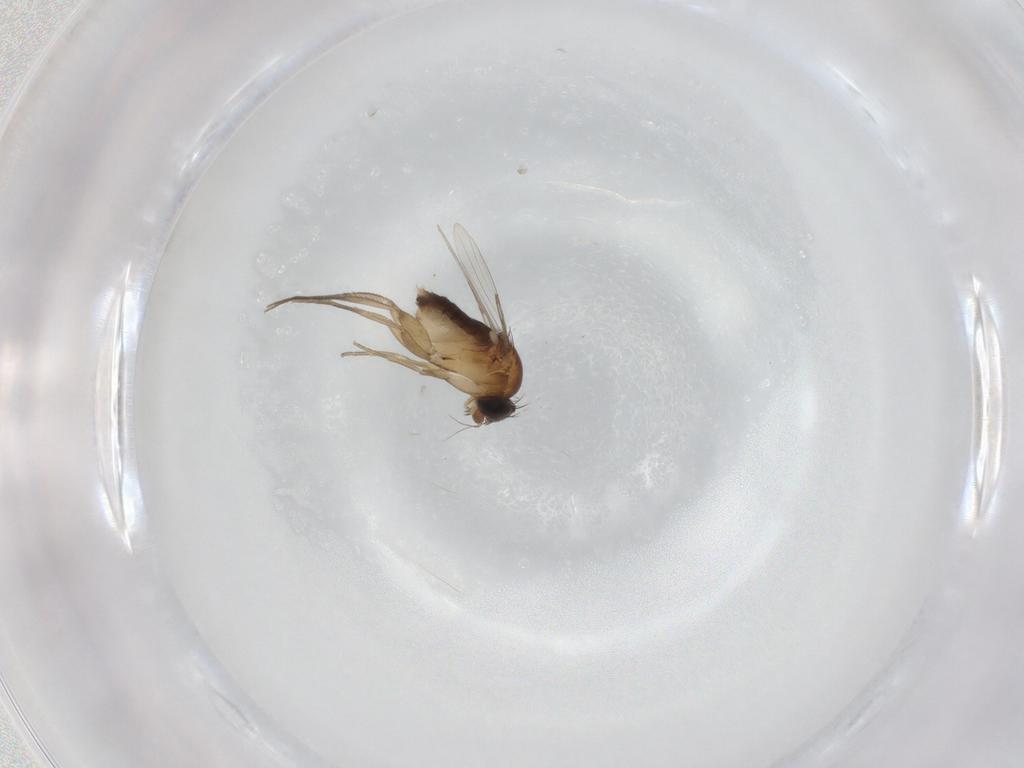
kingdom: Animalia
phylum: Arthropoda
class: Insecta
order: Diptera
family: Phoridae
